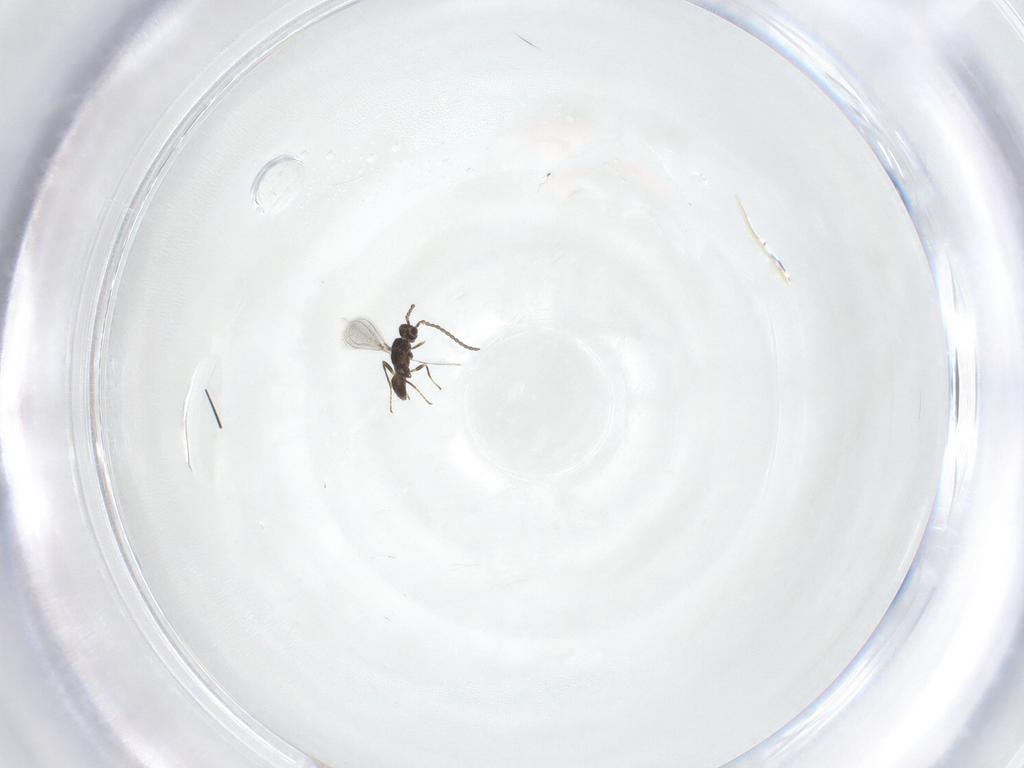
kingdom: Animalia
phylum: Arthropoda
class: Insecta
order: Hymenoptera
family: Mymaridae
